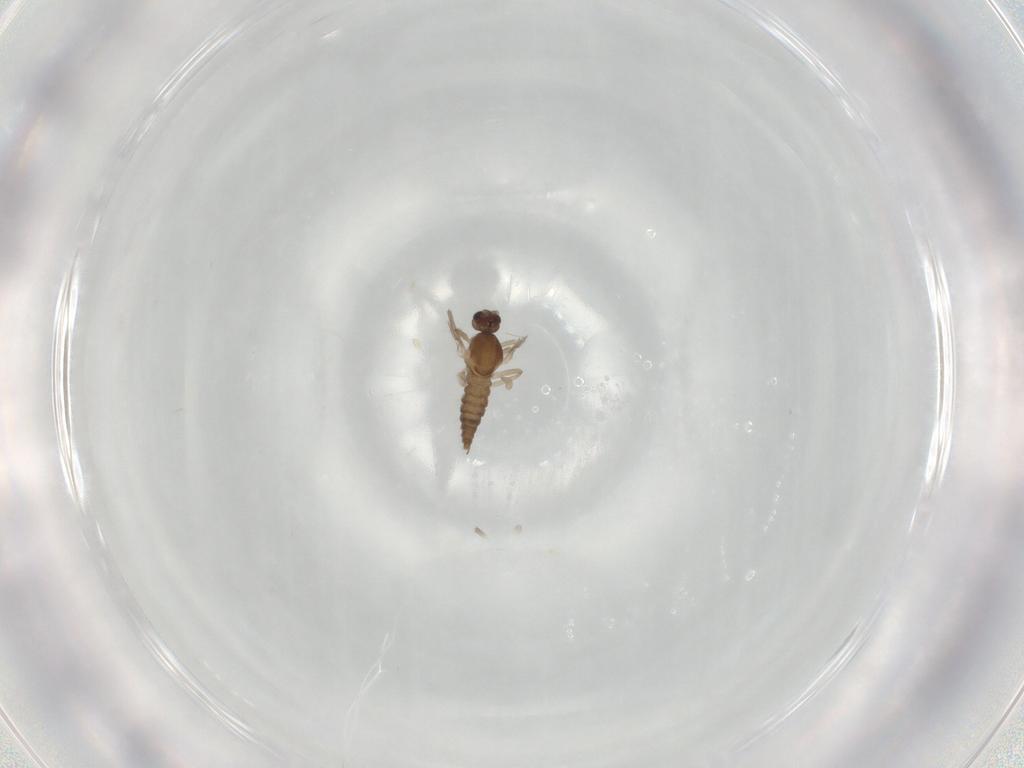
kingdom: Animalia
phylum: Arthropoda
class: Insecta
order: Diptera
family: Cecidomyiidae
